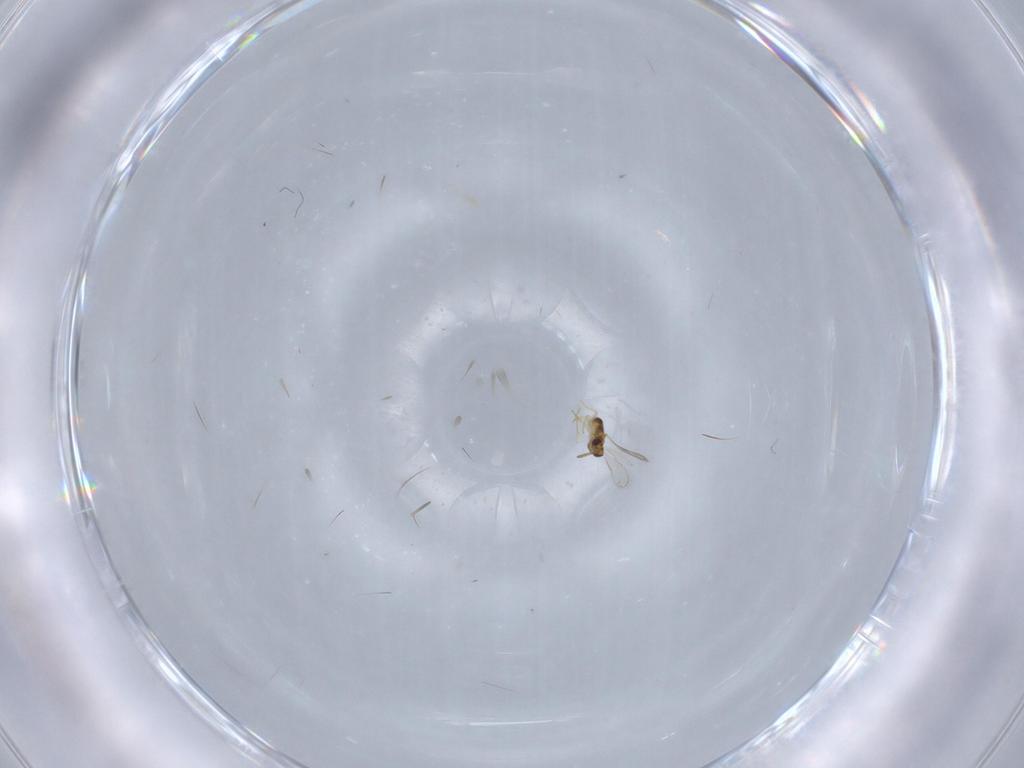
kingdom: Animalia
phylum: Arthropoda
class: Insecta
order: Hymenoptera
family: Aphelinidae
